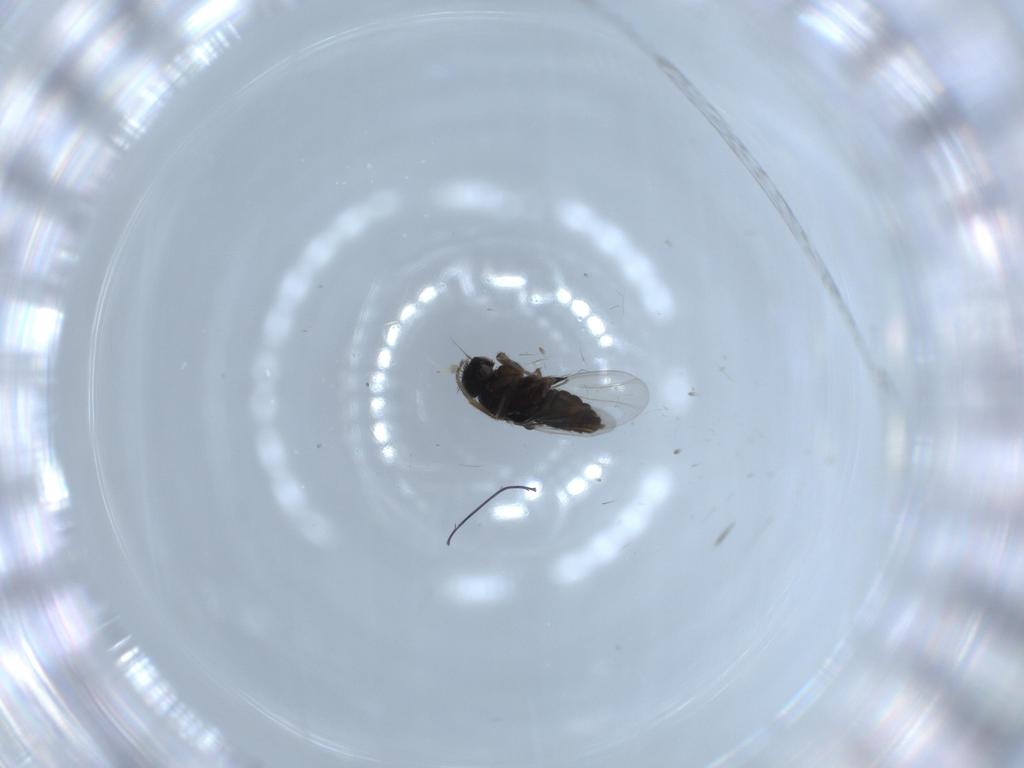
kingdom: Animalia
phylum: Arthropoda
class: Insecta
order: Diptera
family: Phoridae
